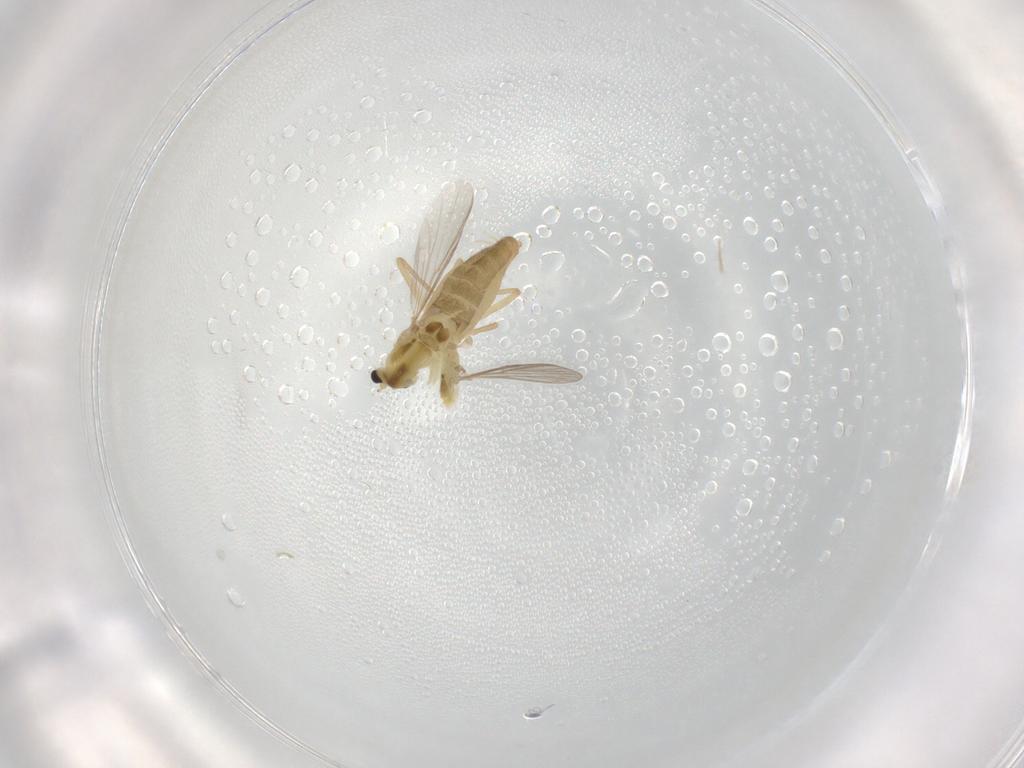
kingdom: Animalia
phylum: Arthropoda
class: Insecta
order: Diptera
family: Chironomidae
